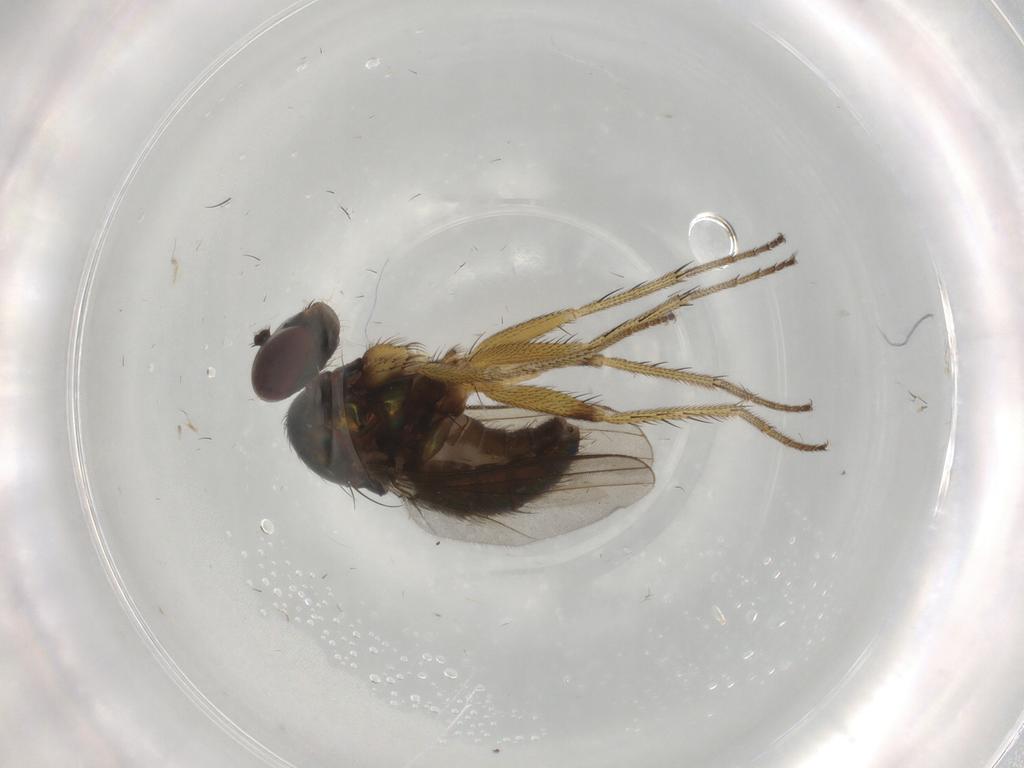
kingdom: Animalia
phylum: Arthropoda
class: Insecta
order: Diptera
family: Dolichopodidae
